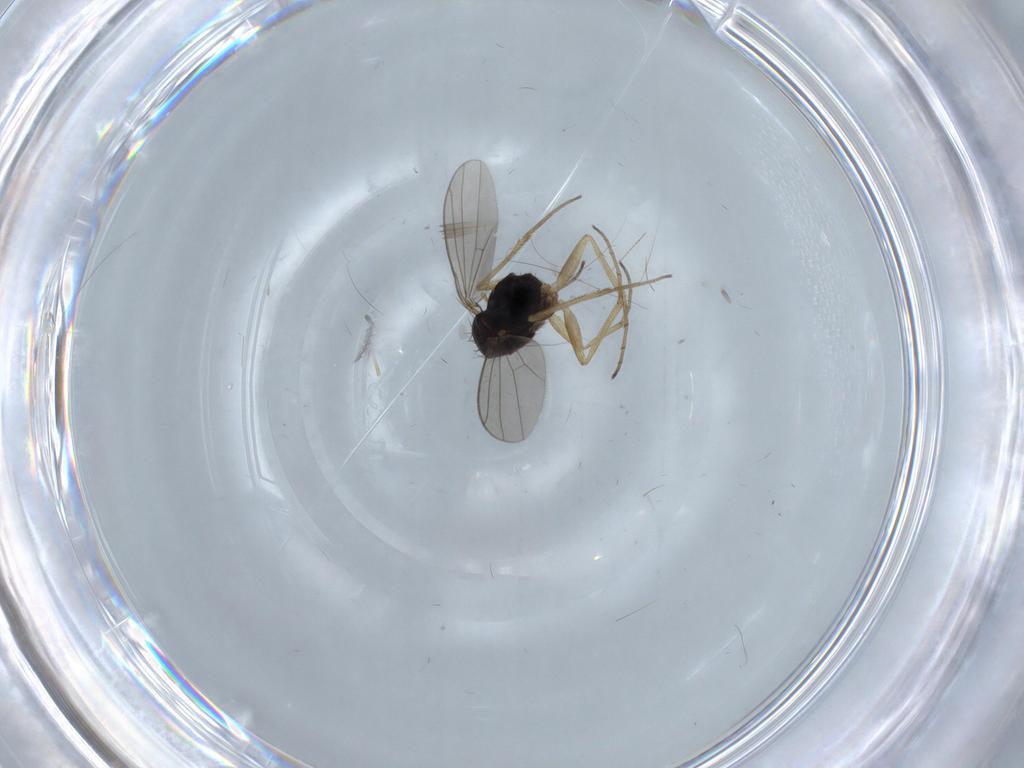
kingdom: Animalia
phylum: Arthropoda
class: Insecta
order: Diptera
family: Dolichopodidae
